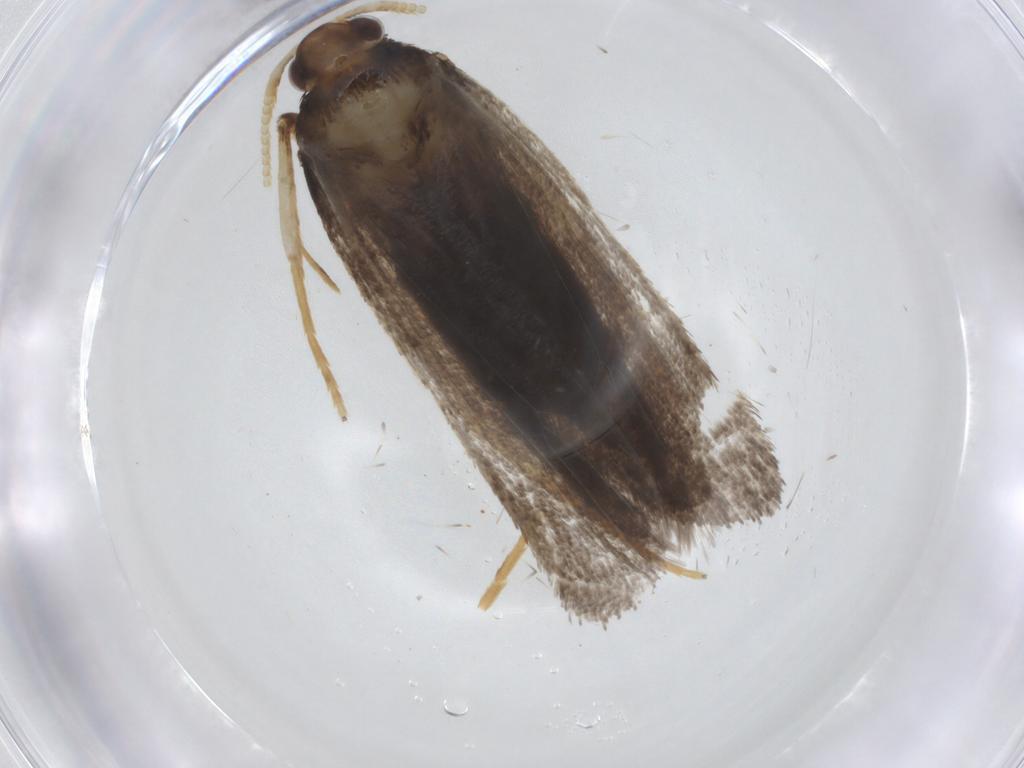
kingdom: Animalia
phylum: Arthropoda
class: Insecta
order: Lepidoptera
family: Lecithoceridae
